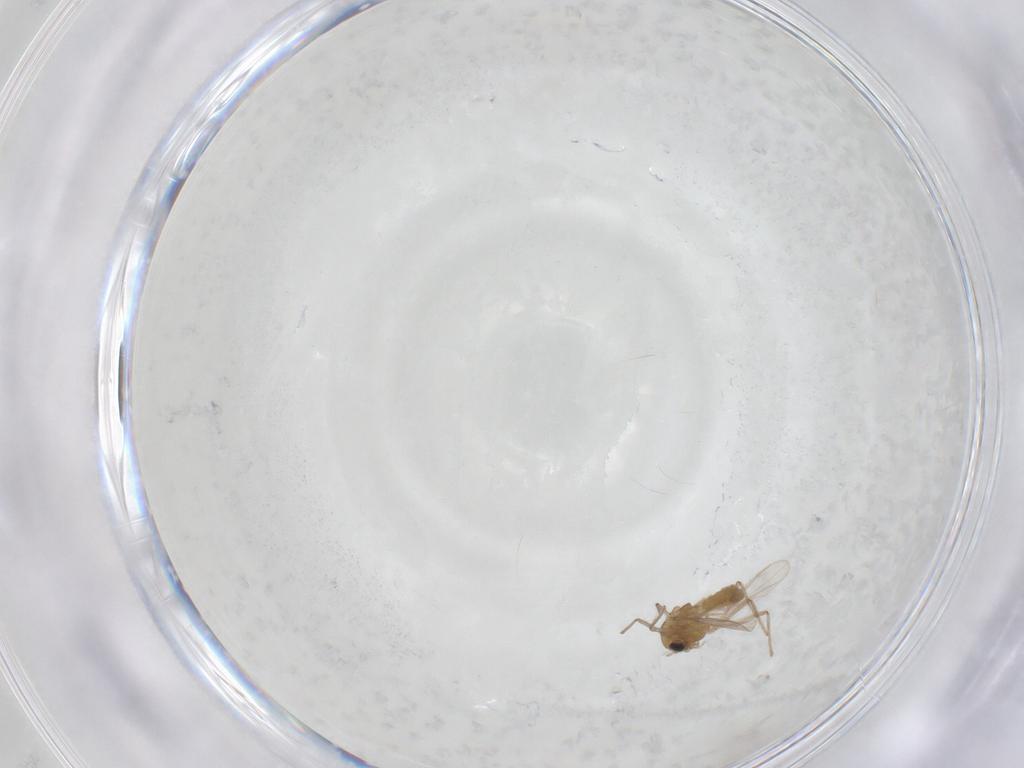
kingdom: Animalia
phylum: Arthropoda
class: Insecta
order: Diptera
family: Chironomidae
